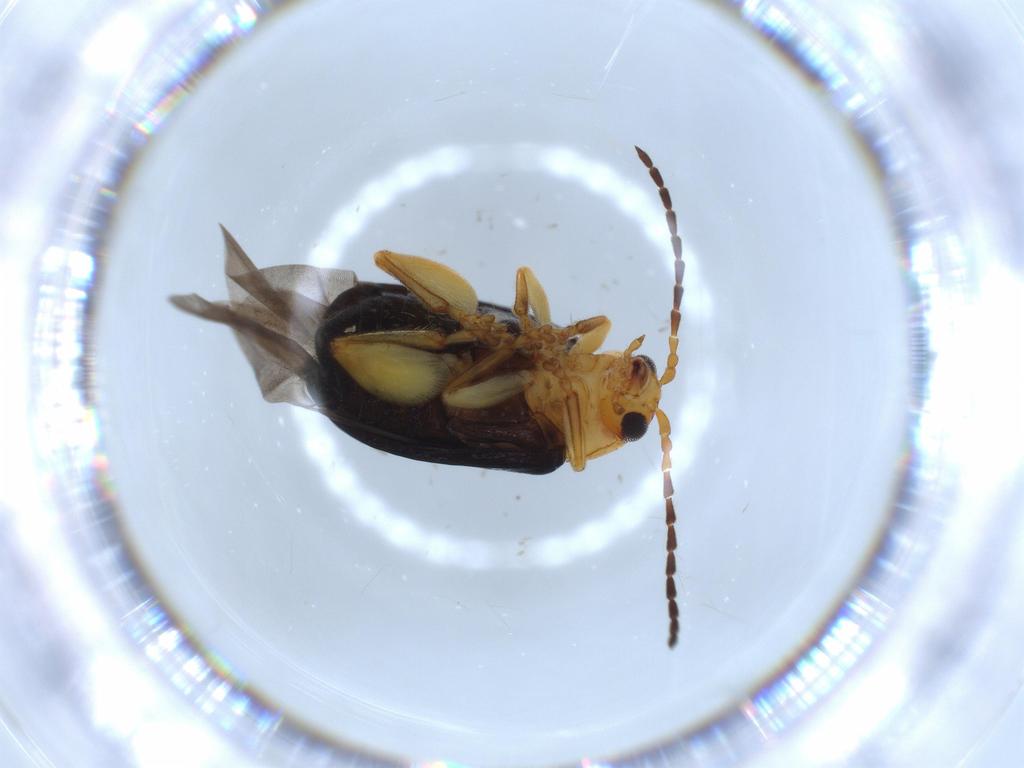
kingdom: Animalia
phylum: Arthropoda
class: Insecta
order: Coleoptera
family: Chrysomelidae
